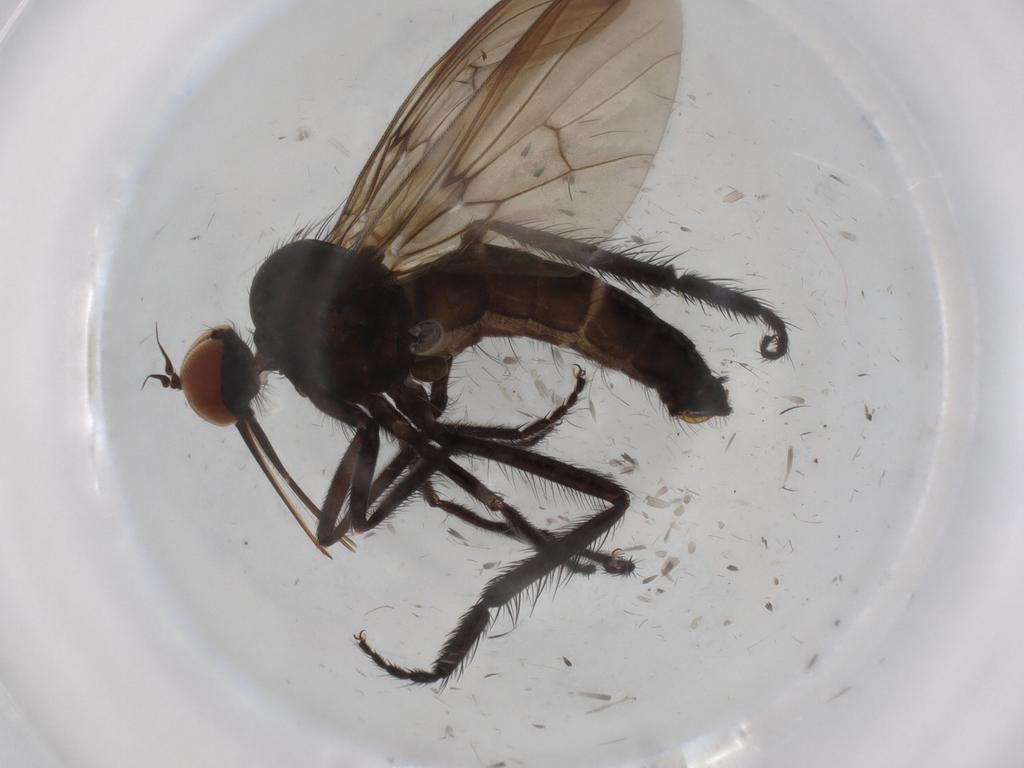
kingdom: Animalia
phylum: Arthropoda
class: Insecta
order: Diptera
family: Empididae
